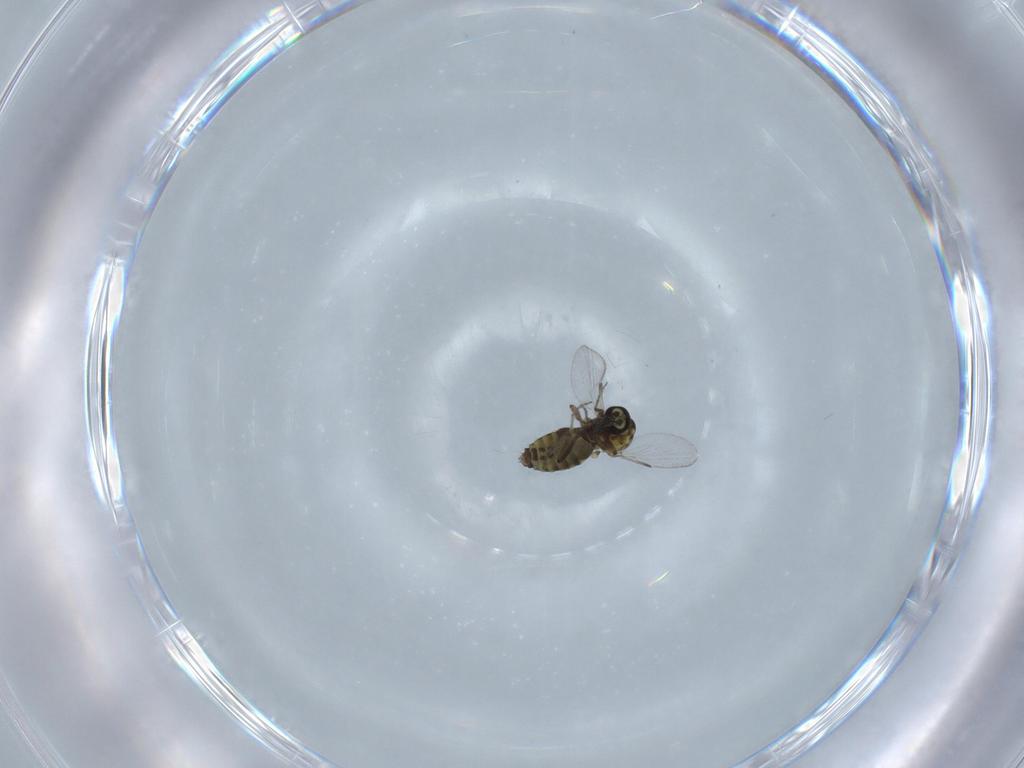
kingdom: Animalia
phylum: Arthropoda
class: Insecta
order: Diptera
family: Ceratopogonidae
